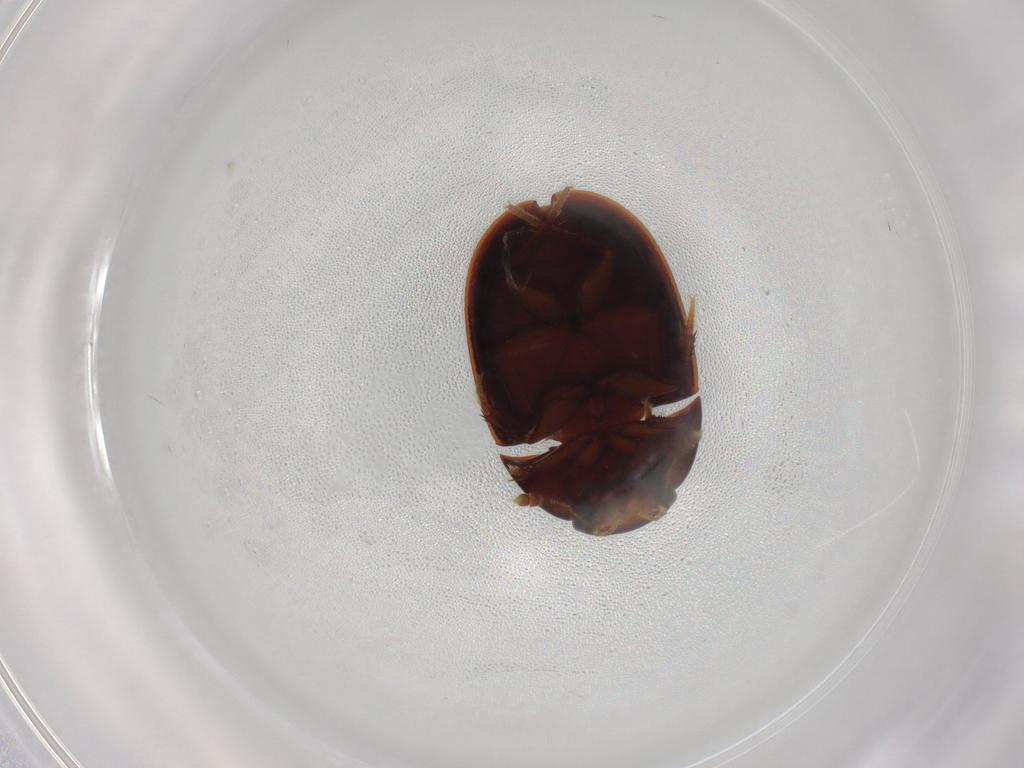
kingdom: Animalia
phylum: Arthropoda
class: Insecta
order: Coleoptera
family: Hydrophilidae
